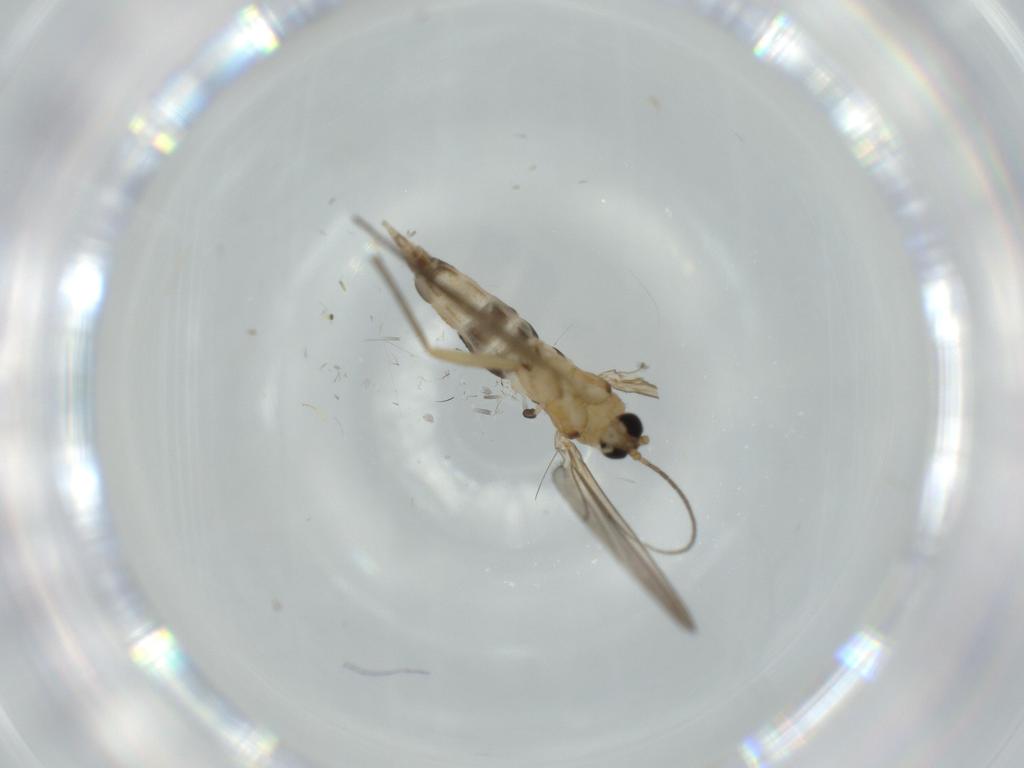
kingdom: Animalia
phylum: Arthropoda
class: Insecta
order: Diptera
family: Sciaridae
